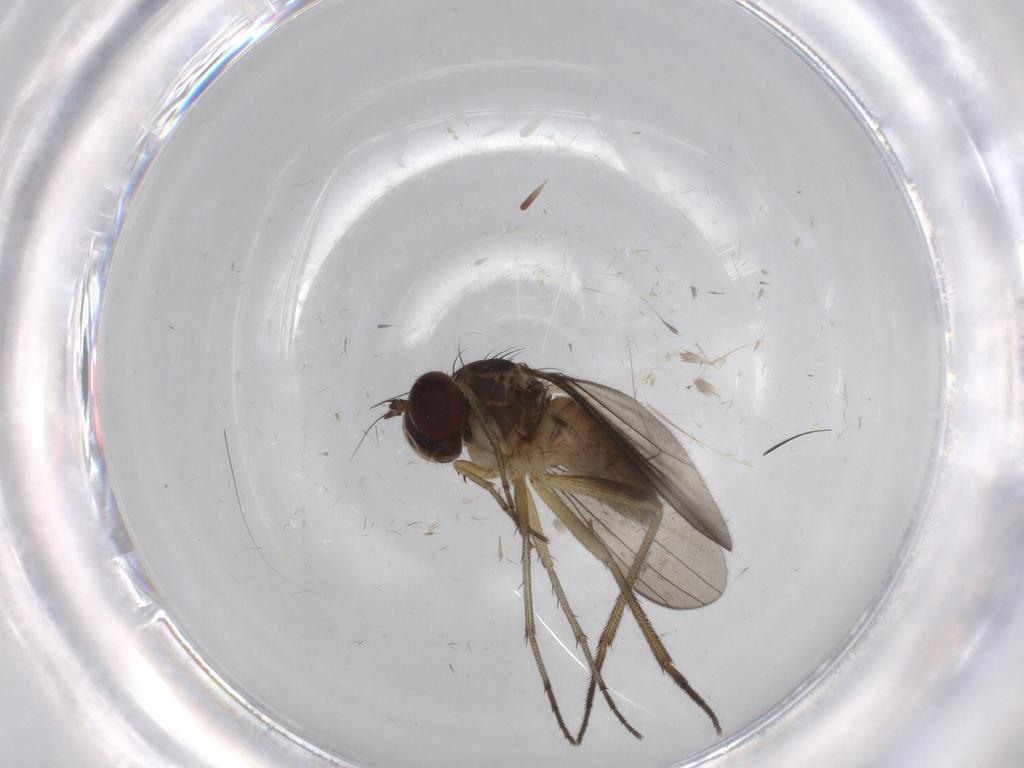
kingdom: Animalia
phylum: Arthropoda
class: Insecta
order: Diptera
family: Dolichopodidae
